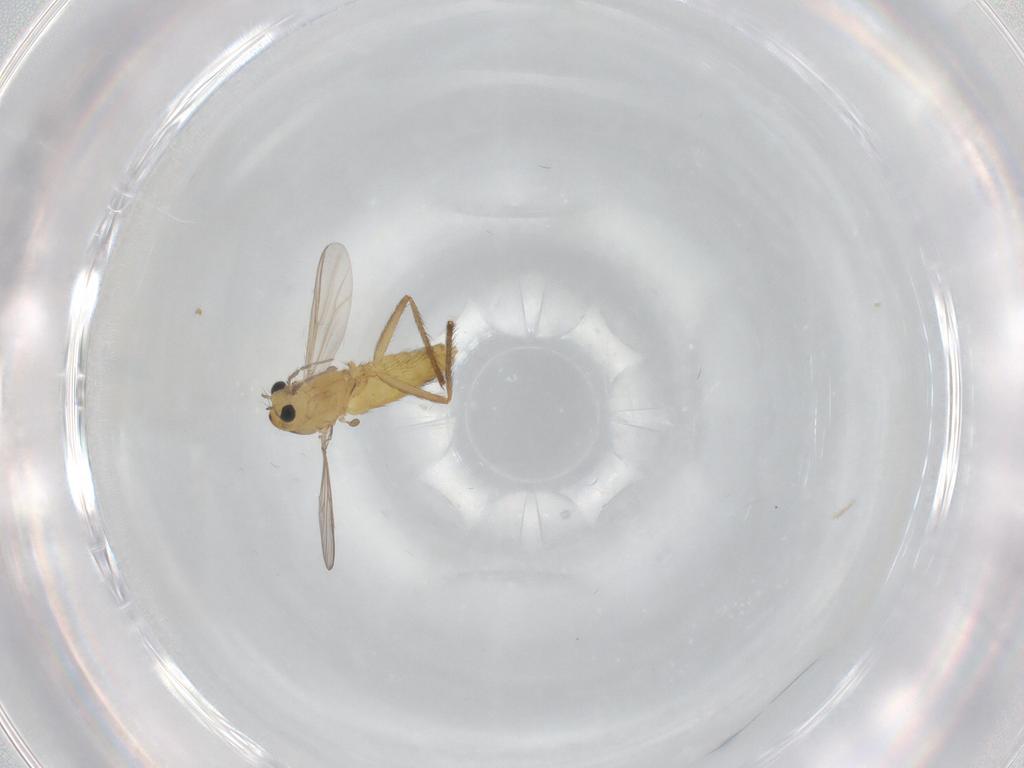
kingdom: Animalia
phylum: Arthropoda
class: Insecta
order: Diptera
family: Chironomidae
